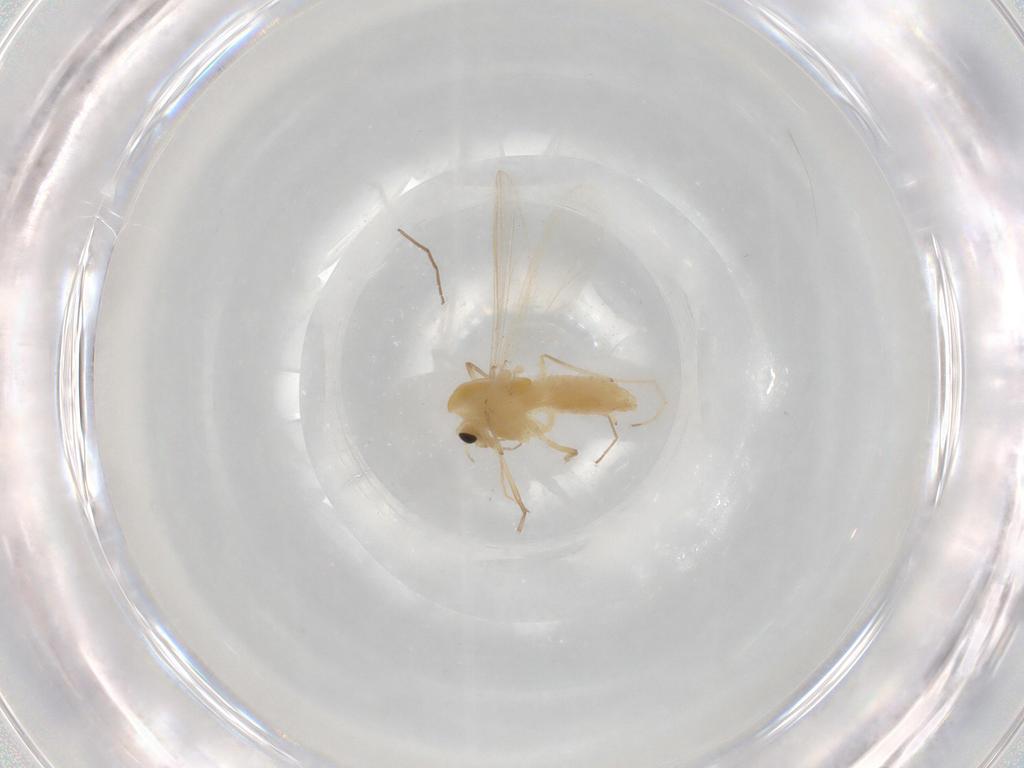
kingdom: Animalia
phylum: Arthropoda
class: Insecta
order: Diptera
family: Chironomidae
